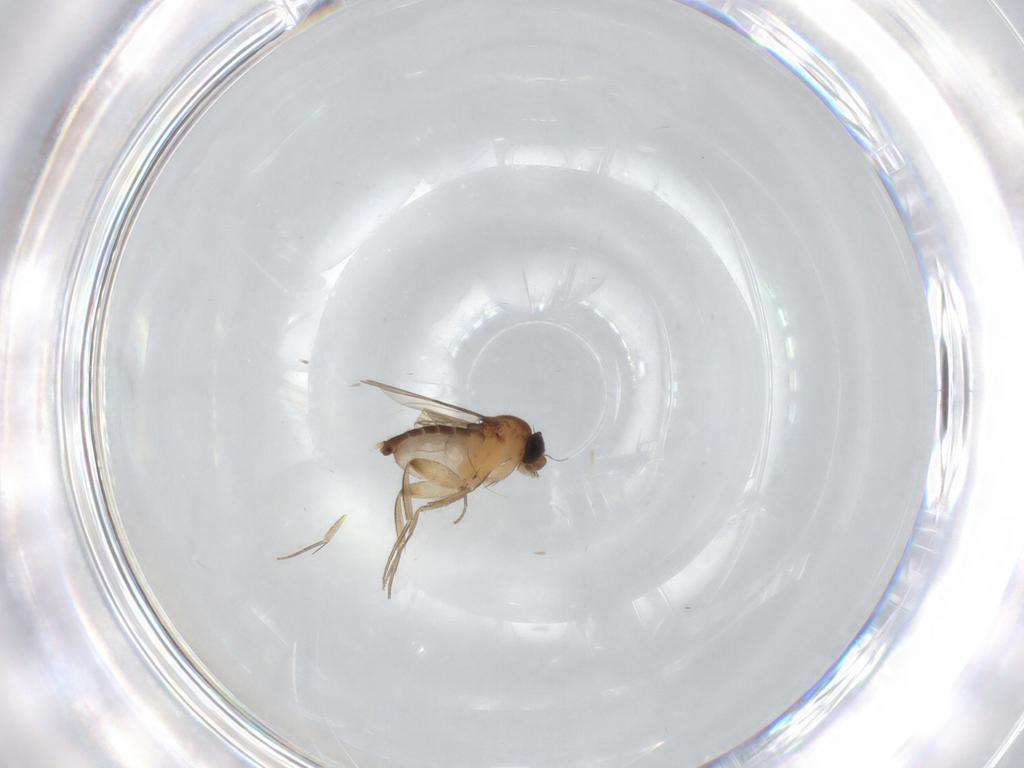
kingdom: Animalia
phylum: Arthropoda
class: Insecta
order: Diptera
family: Phoridae
